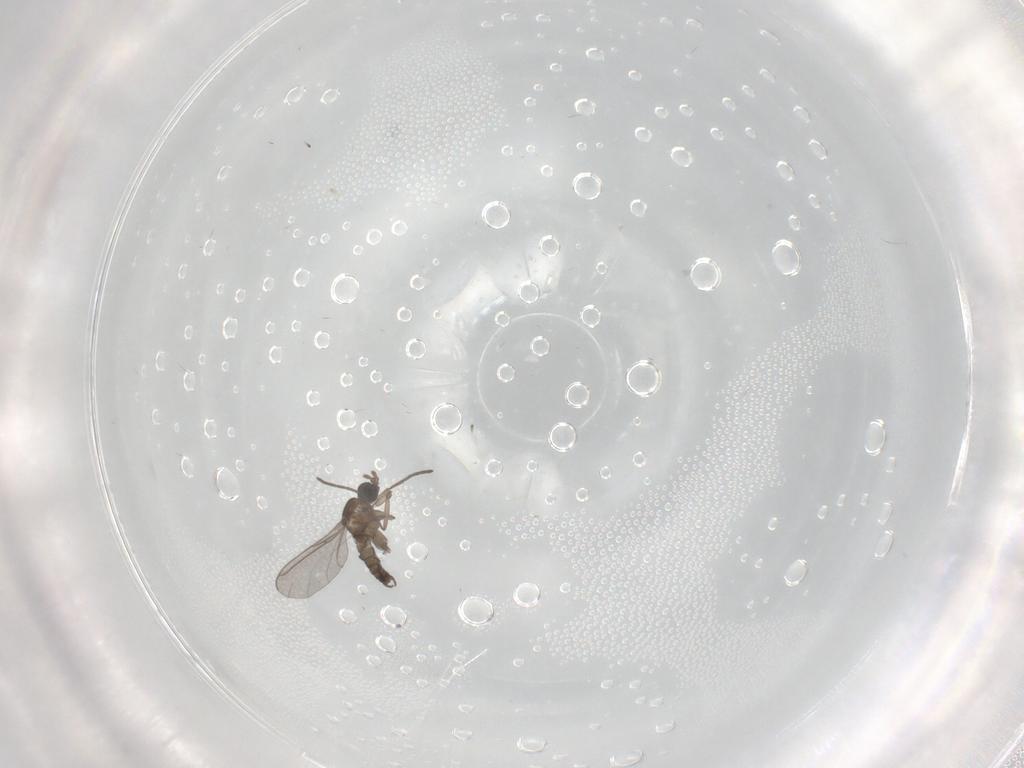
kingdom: Animalia
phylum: Arthropoda
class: Insecta
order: Diptera
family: Sciaridae
